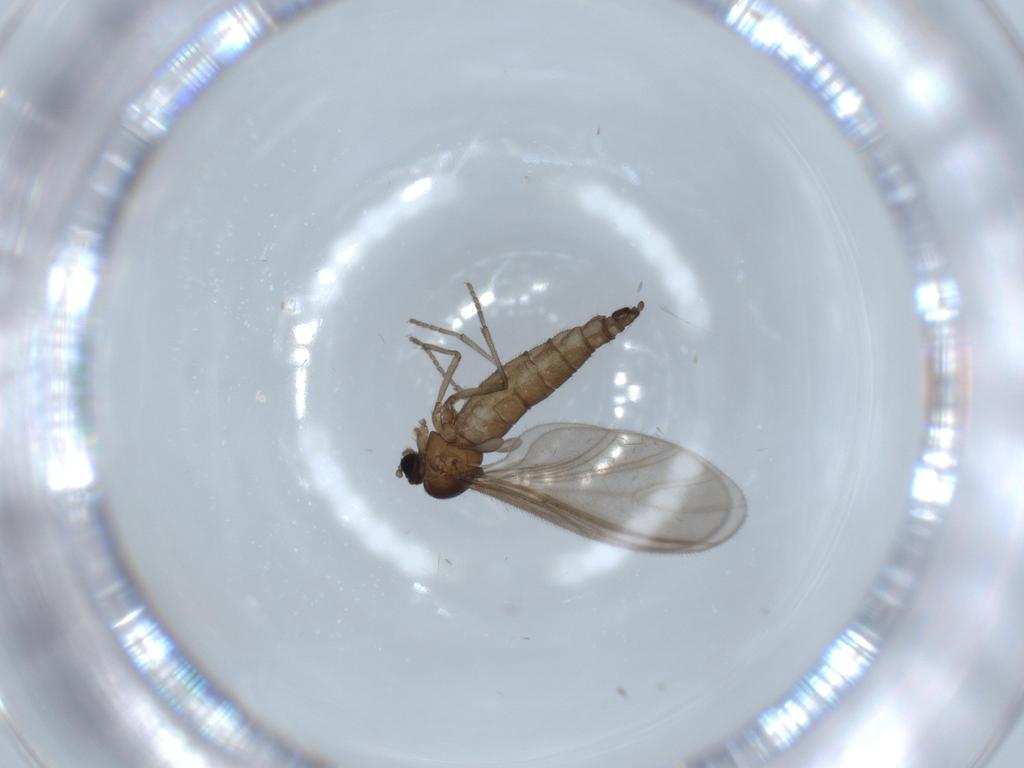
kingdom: Animalia
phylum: Arthropoda
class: Insecta
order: Diptera
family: Sciaridae
